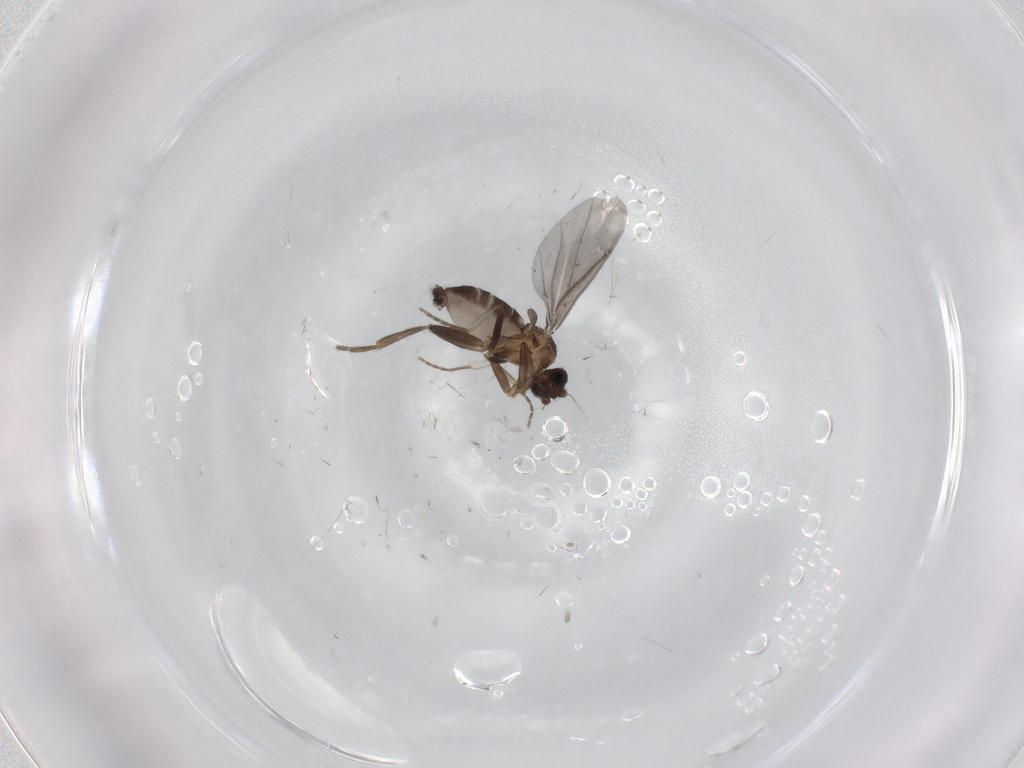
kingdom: Animalia
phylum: Arthropoda
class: Insecta
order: Diptera
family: Phoridae
